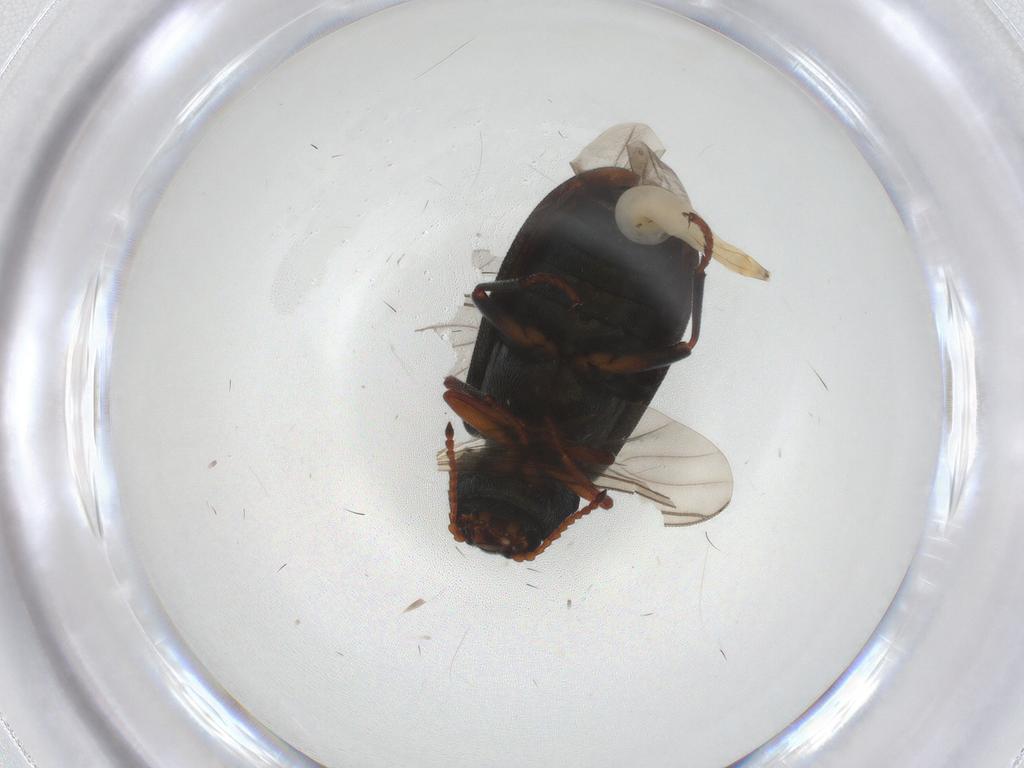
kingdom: Animalia
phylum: Arthropoda
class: Insecta
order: Coleoptera
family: Melyridae
